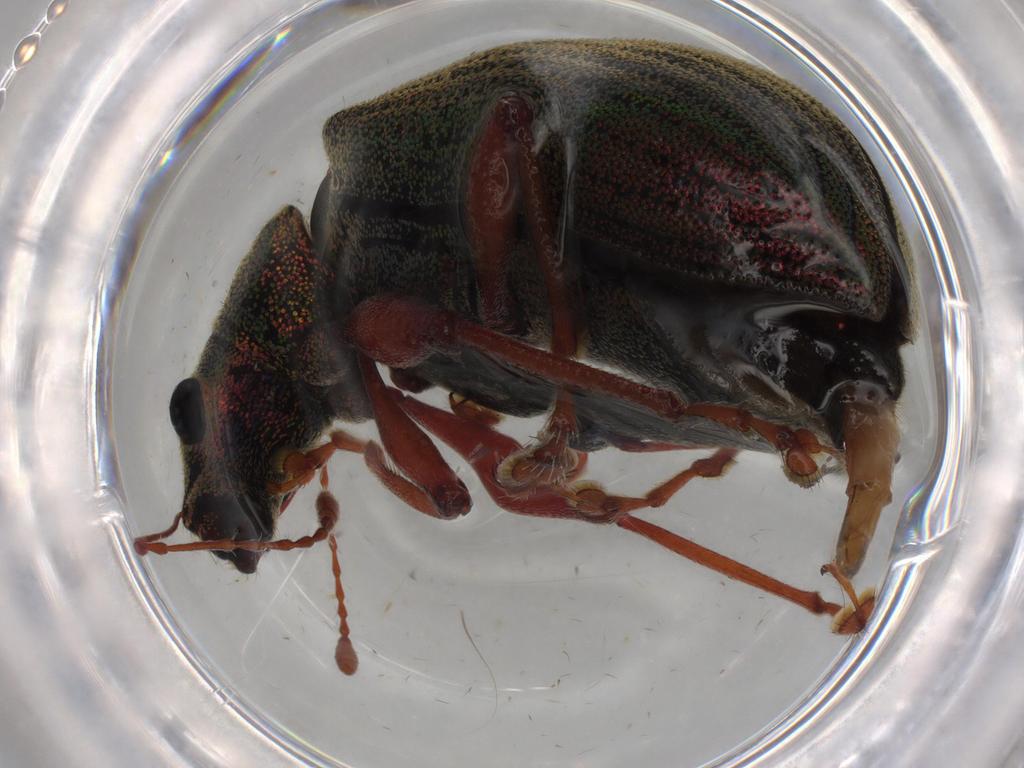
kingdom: Animalia
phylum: Arthropoda
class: Insecta
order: Coleoptera
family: Curculionidae
